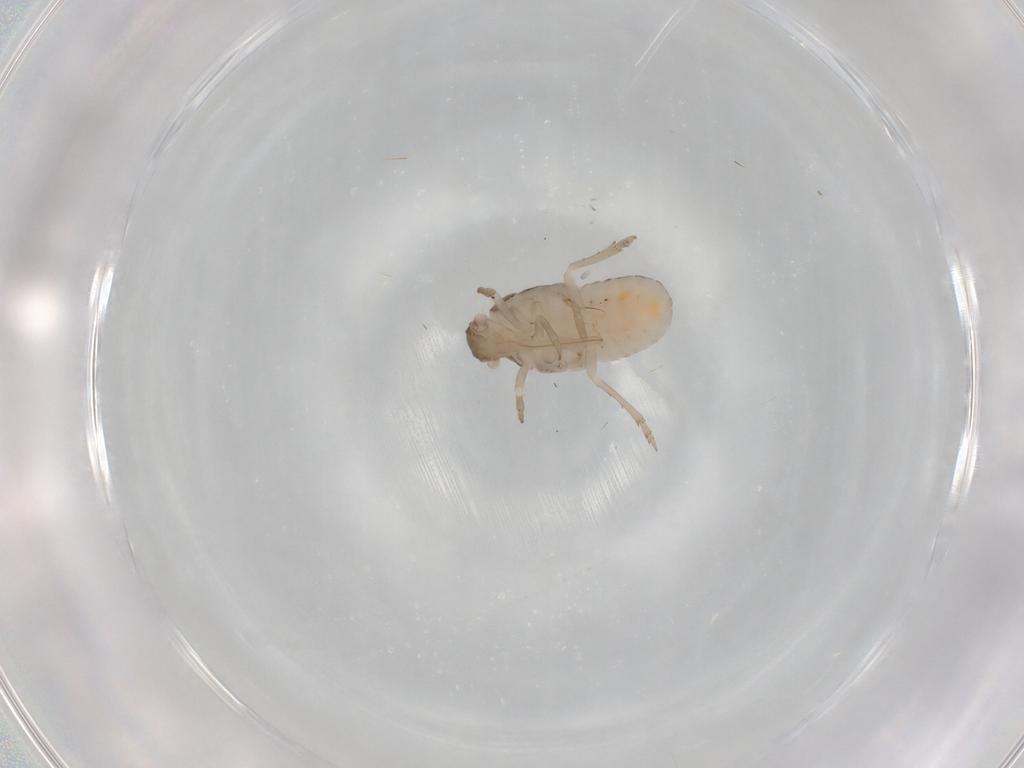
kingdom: Animalia
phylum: Arthropoda
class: Insecta
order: Hemiptera
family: Achilidae
